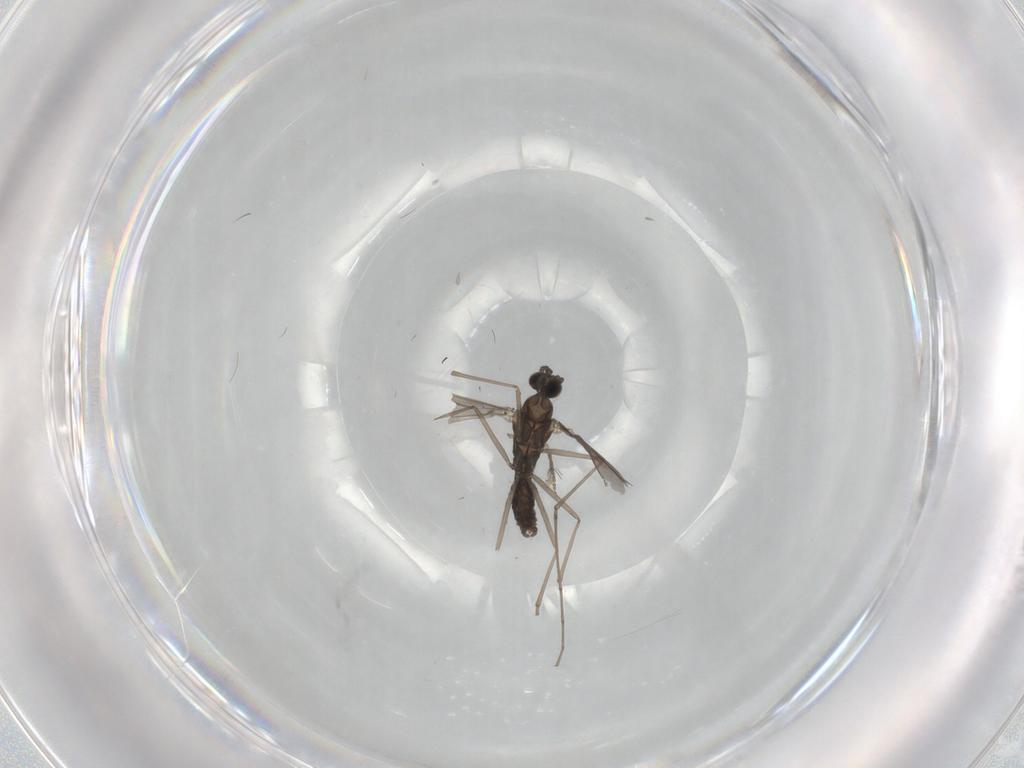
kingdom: Animalia
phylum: Arthropoda
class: Insecta
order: Diptera
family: Cecidomyiidae
